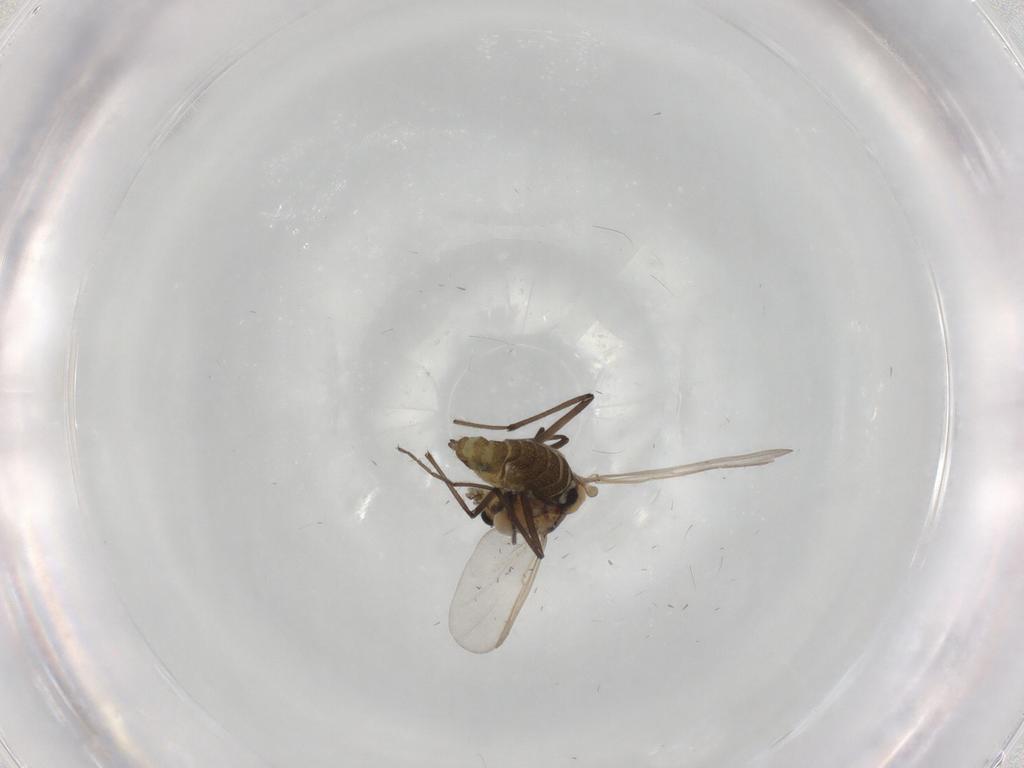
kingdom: Animalia
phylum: Arthropoda
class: Insecta
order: Diptera
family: Chironomidae
